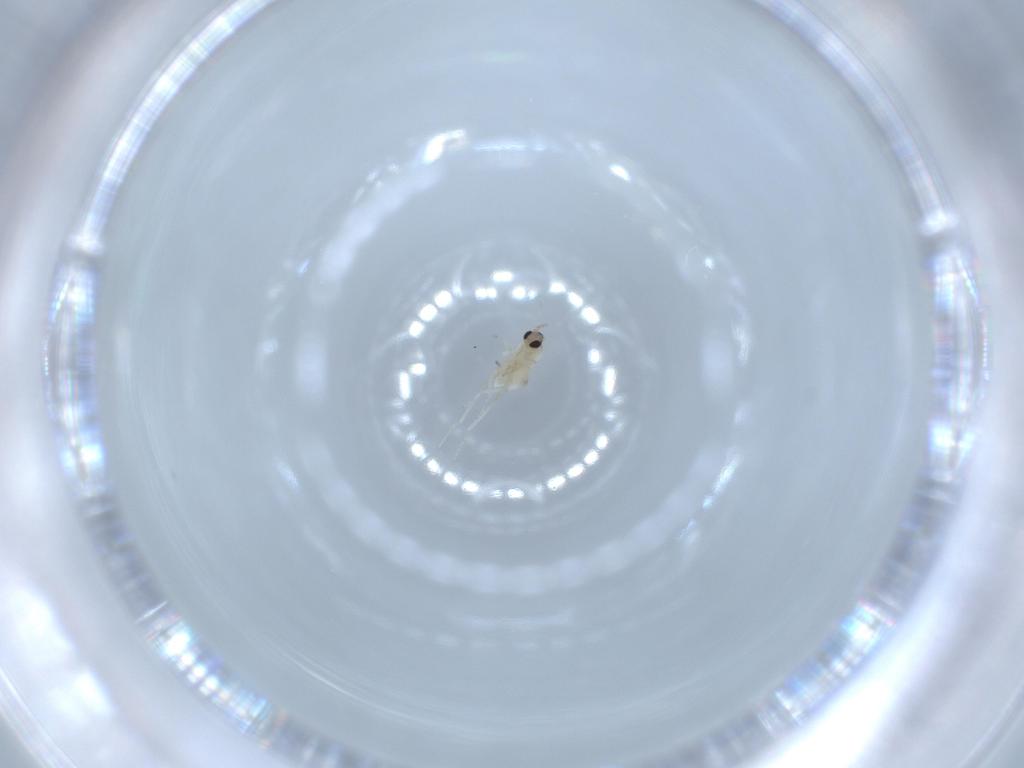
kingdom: Animalia
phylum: Arthropoda
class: Insecta
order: Diptera
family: Cecidomyiidae
